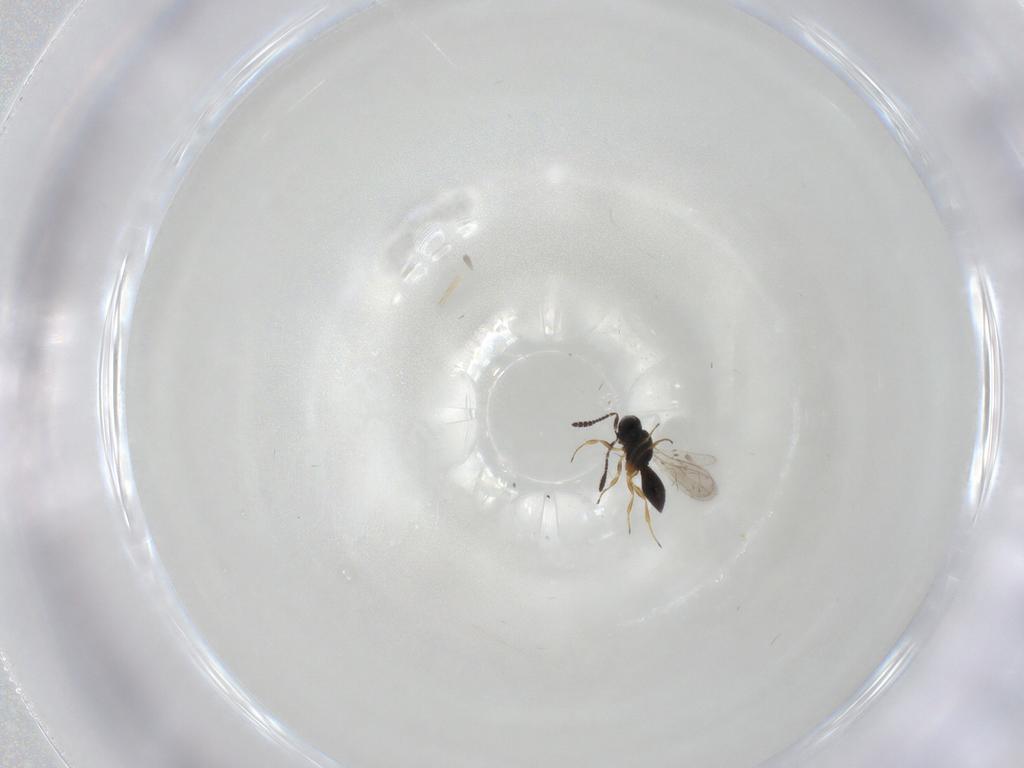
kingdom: Animalia
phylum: Arthropoda
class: Insecta
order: Hymenoptera
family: Scelionidae
